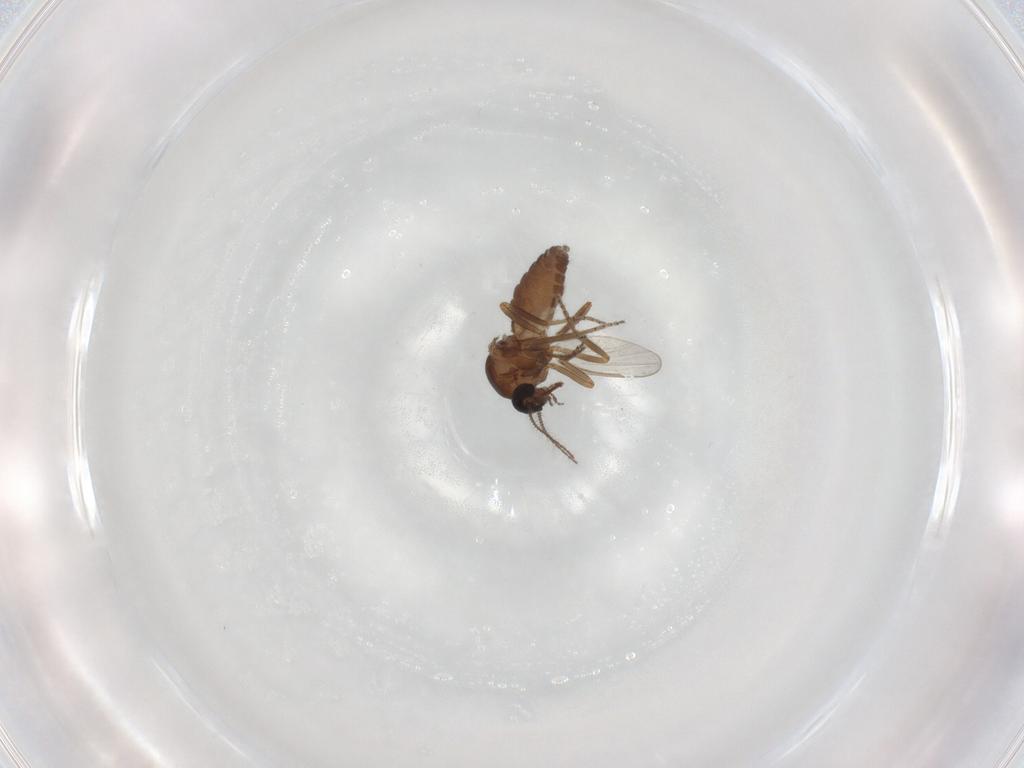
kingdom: Animalia
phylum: Arthropoda
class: Insecta
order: Diptera
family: Ceratopogonidae
